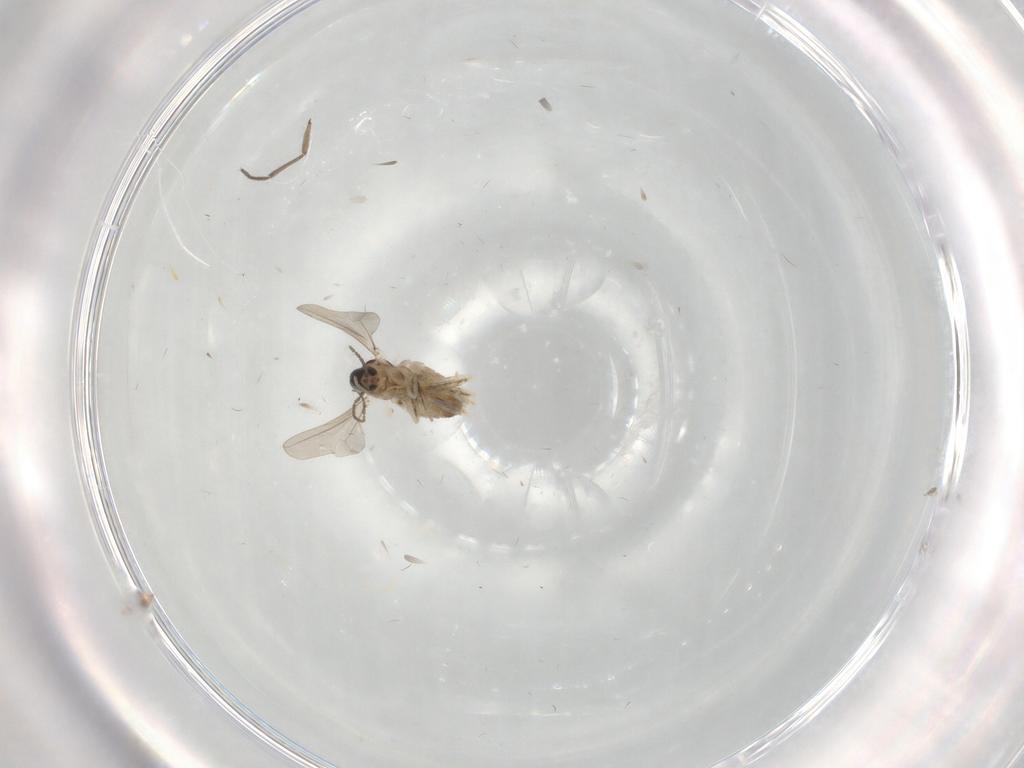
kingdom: Animalia
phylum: Arthropoda
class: Insecta
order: Diptera
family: Cecidomyiidae
